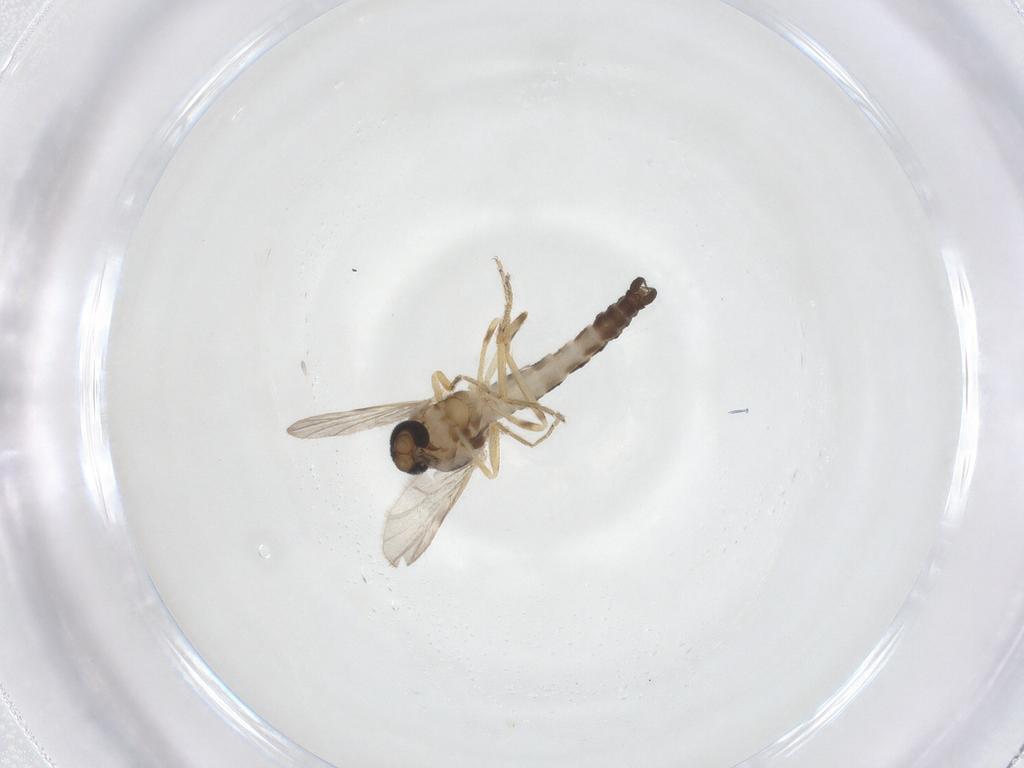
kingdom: Animalia
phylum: Arthropoda
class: Insecta
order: Diptera
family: Ceratopogonidae
